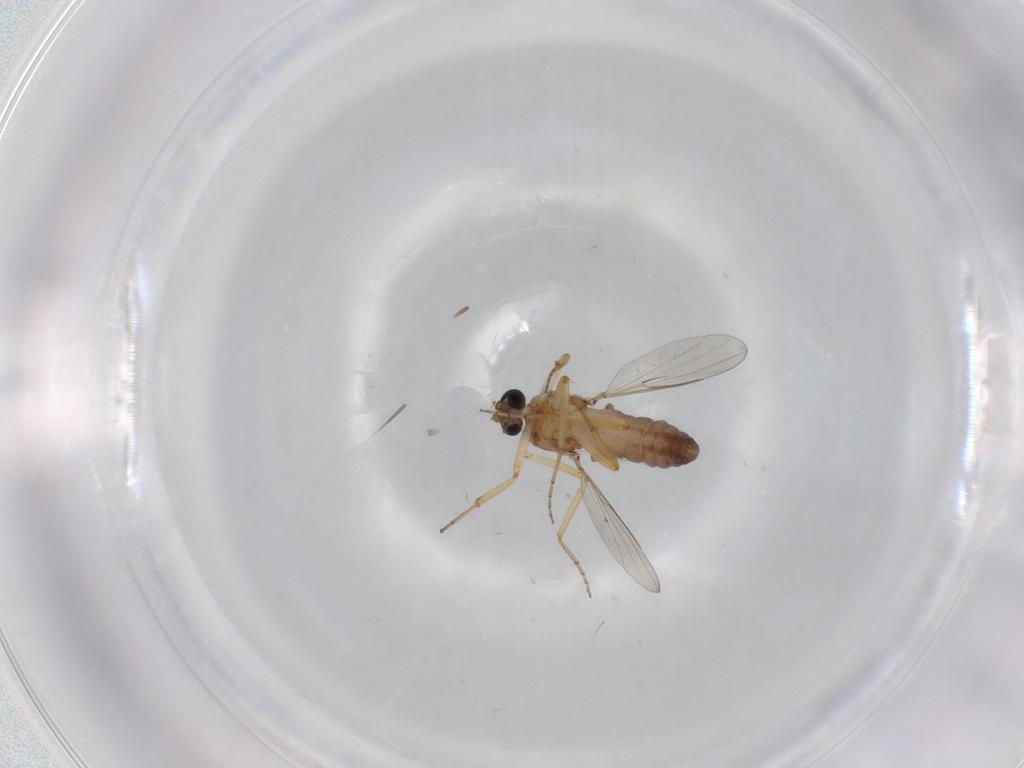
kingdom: Animalia
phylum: Arthropoda
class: Insecta
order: Diptera
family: Ceratopogonidae
